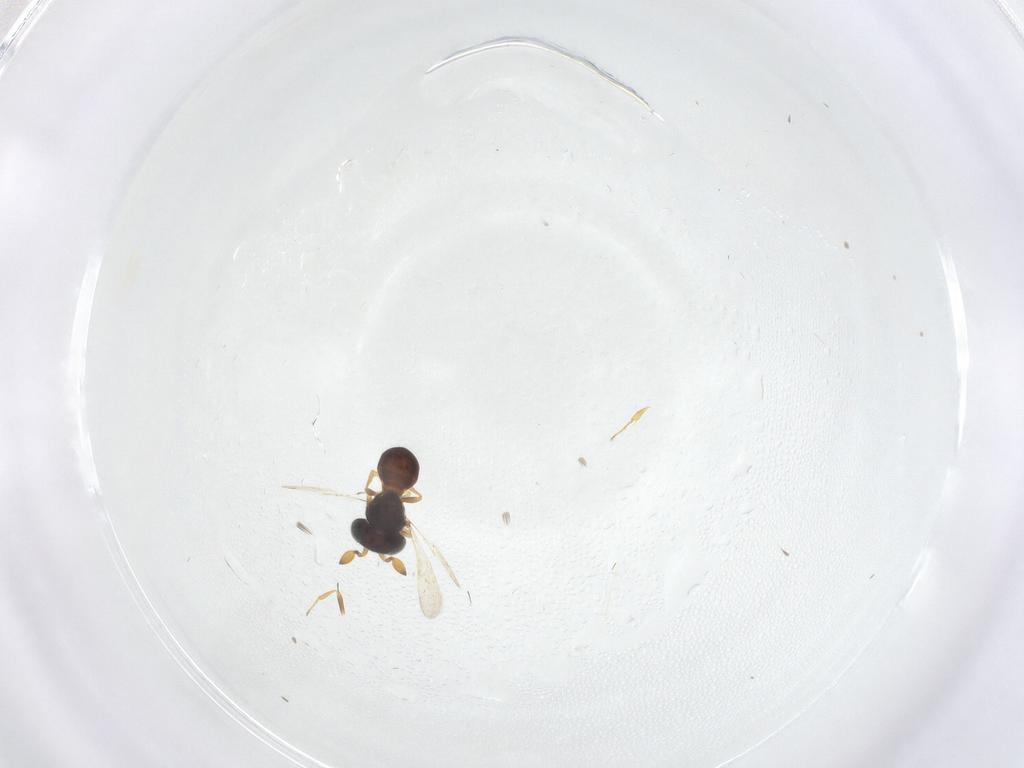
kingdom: Animalia
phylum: Arthropoda
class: Insecta
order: Hymenoptera
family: Scelionidae
